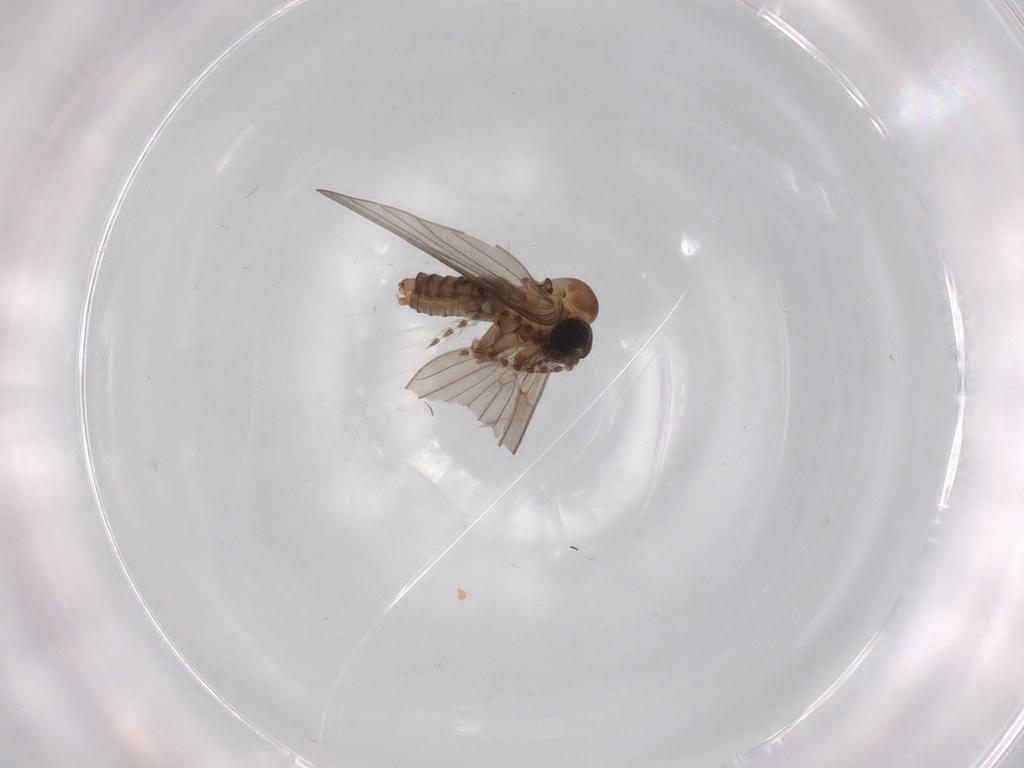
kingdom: Animalia
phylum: Arthropoda
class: Insecta
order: Diptera
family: Psychodidae
